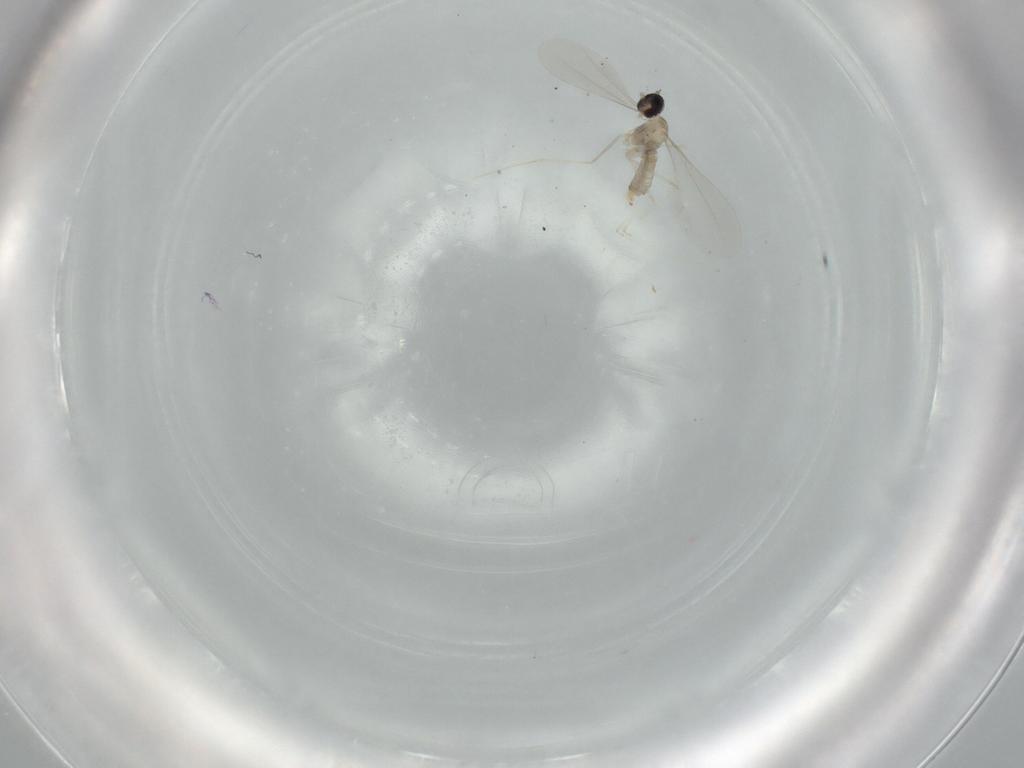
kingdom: Animalia
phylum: Arthropoda
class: Insecta
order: Diptera
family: Cecidomyiidae
